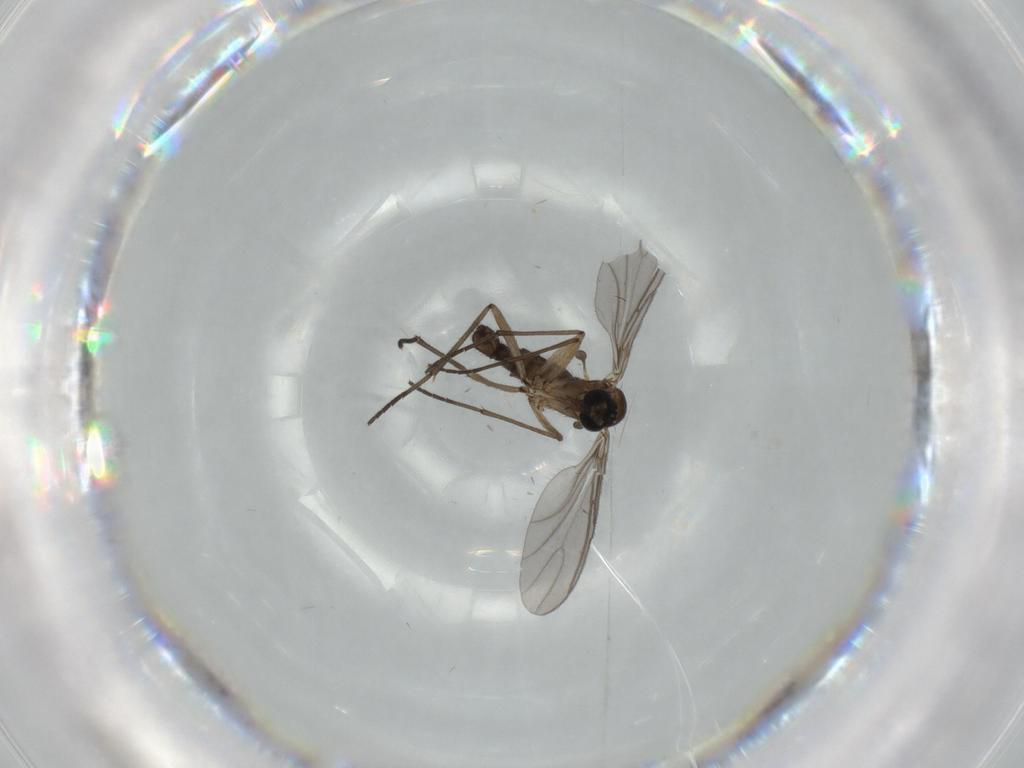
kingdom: Animalia
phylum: Arthropoda
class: Insecta
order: Diptera
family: Sciaridae
